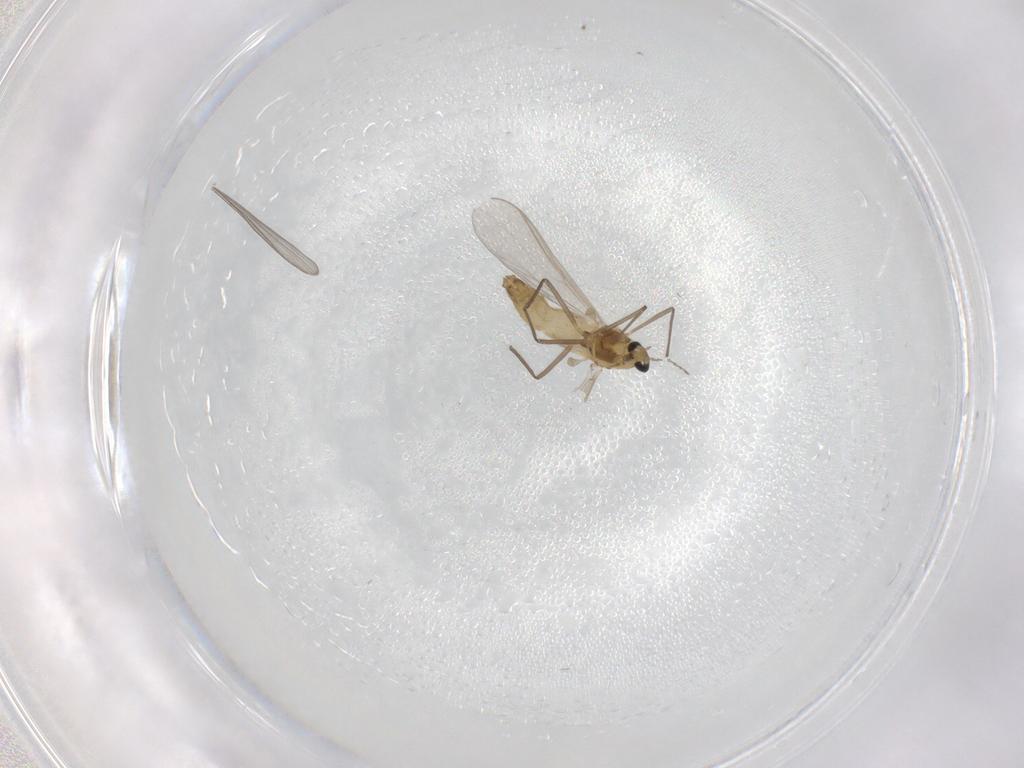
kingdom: Animalia
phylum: Arthropoda
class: Insecta
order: Diptera
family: Chironomidae
